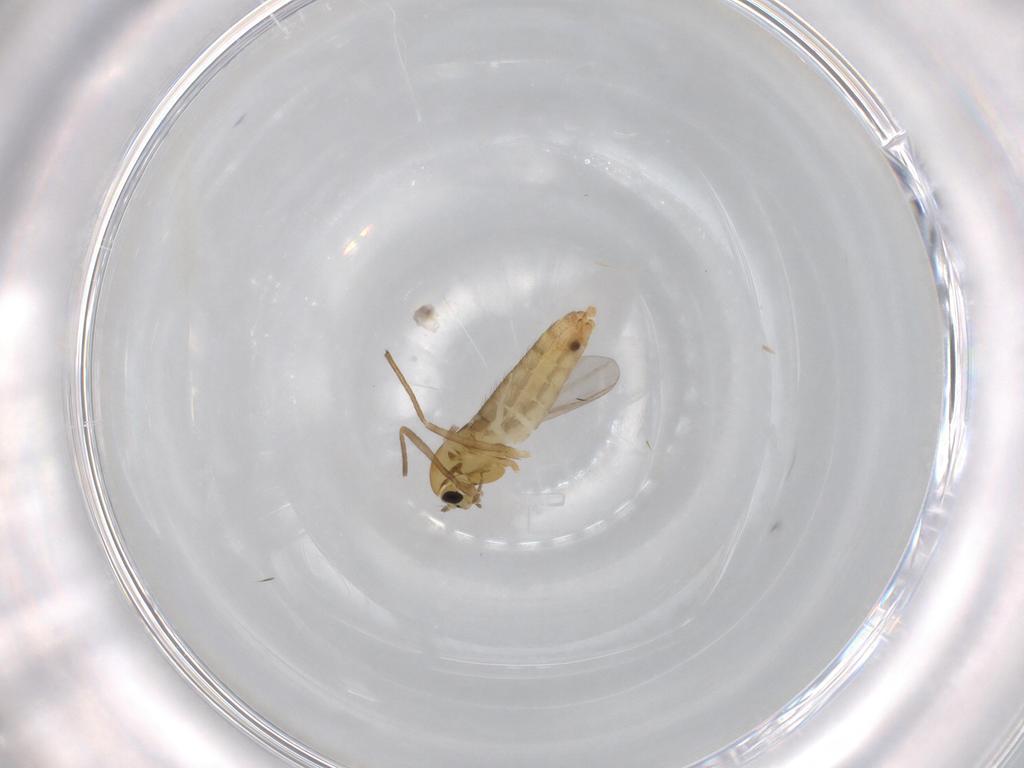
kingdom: Animalia
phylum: Arthropoda
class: Insecta
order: Diptera
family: Chironomidae
